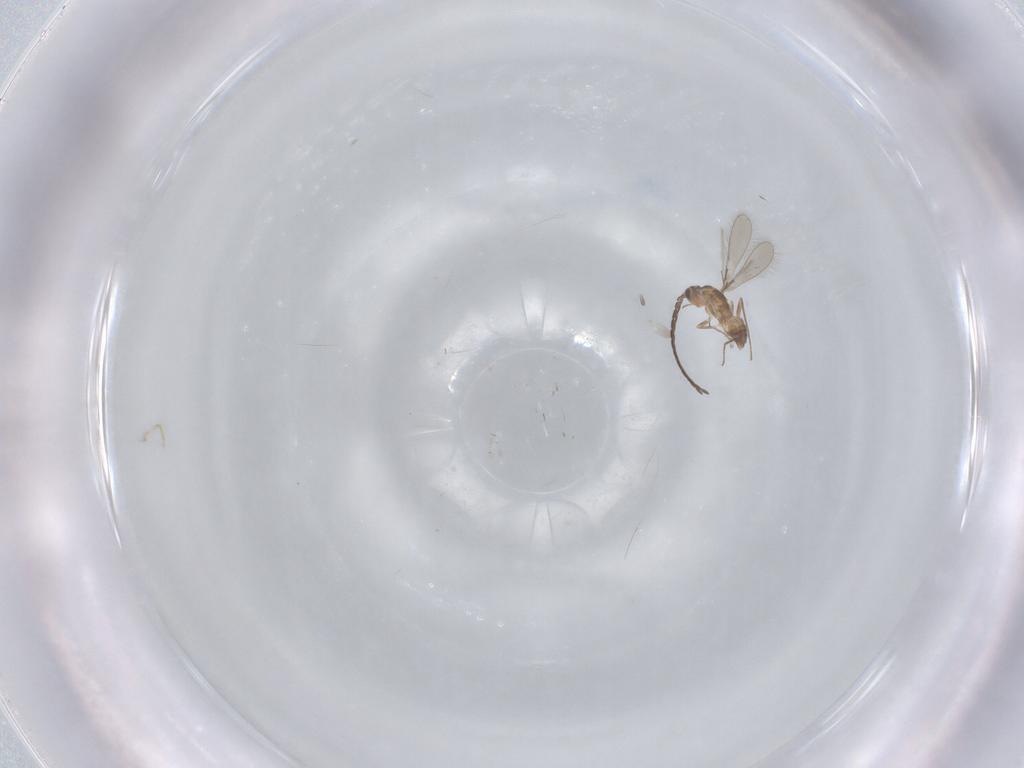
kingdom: Animalia
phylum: Arthropoda
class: Insecta
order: Hymenoptera
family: Mymaridae
